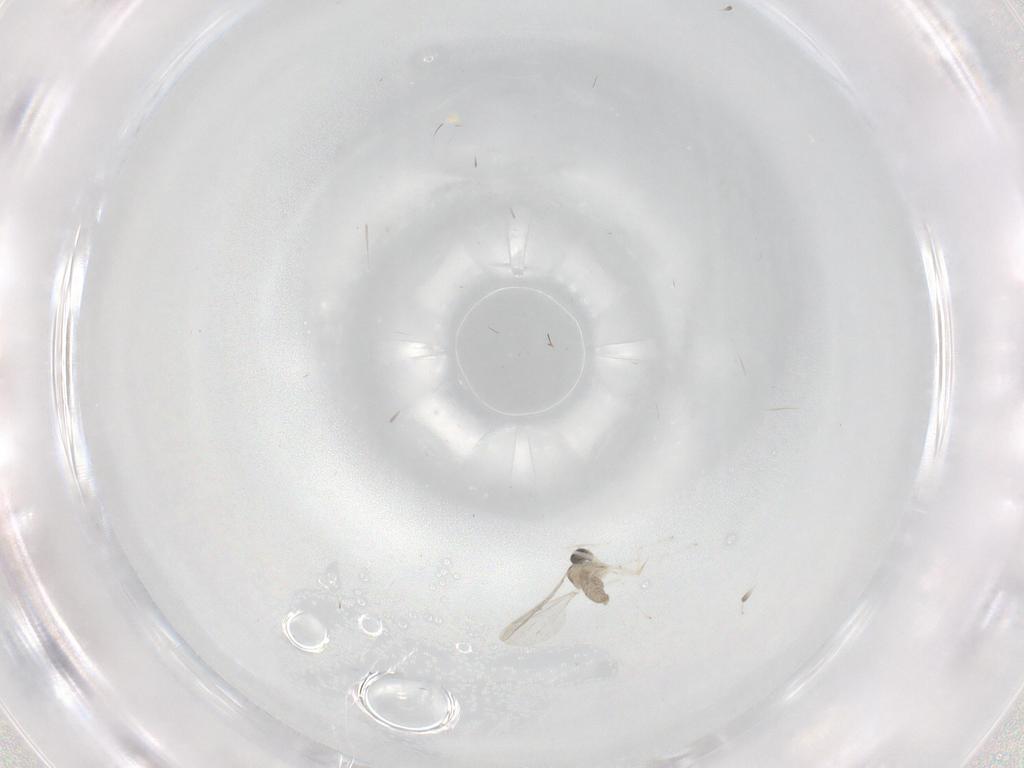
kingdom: Animalia
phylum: Arthropoda
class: Insecta
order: Diptera
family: Cecidomyiidae
